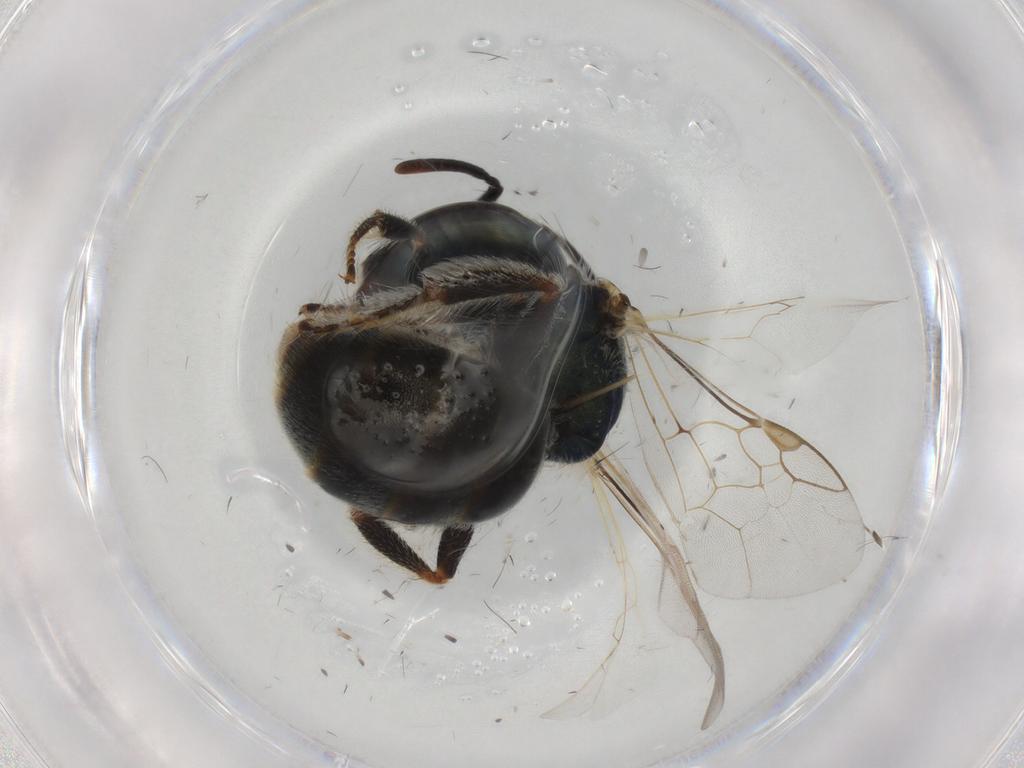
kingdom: Animalia
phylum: Arthropoda
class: Insecta
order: Hymenoptera
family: Halictidae
